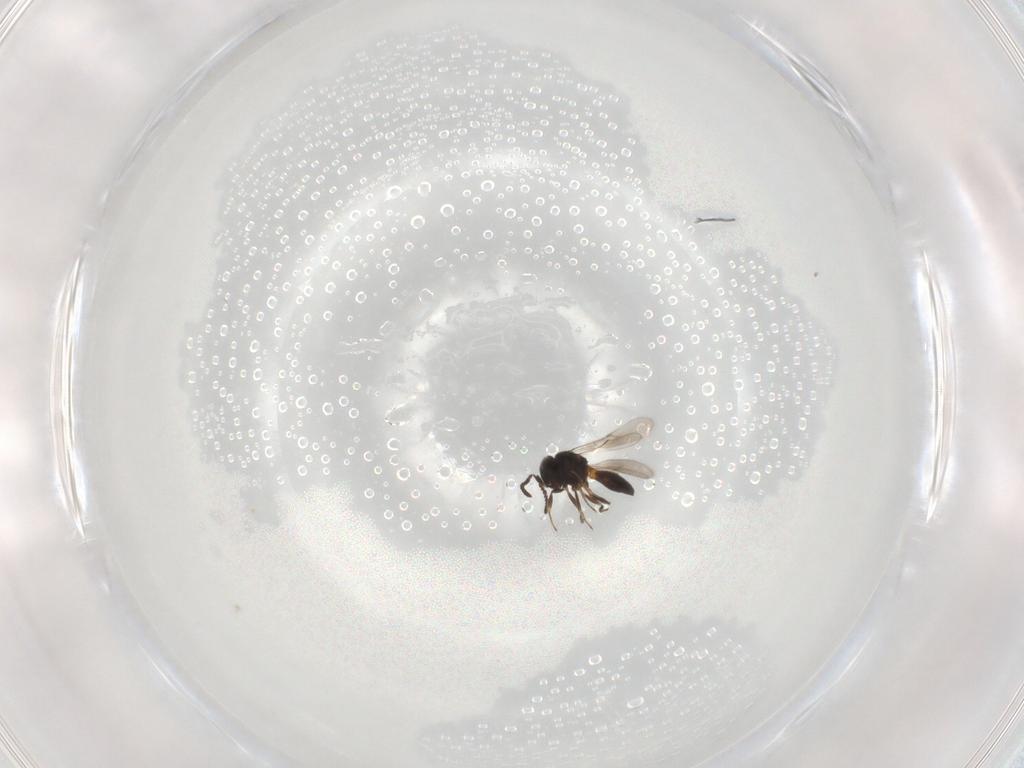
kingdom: Animalia
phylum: Arthropoda
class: Insecta
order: Hymenoptera
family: Scelionidae
